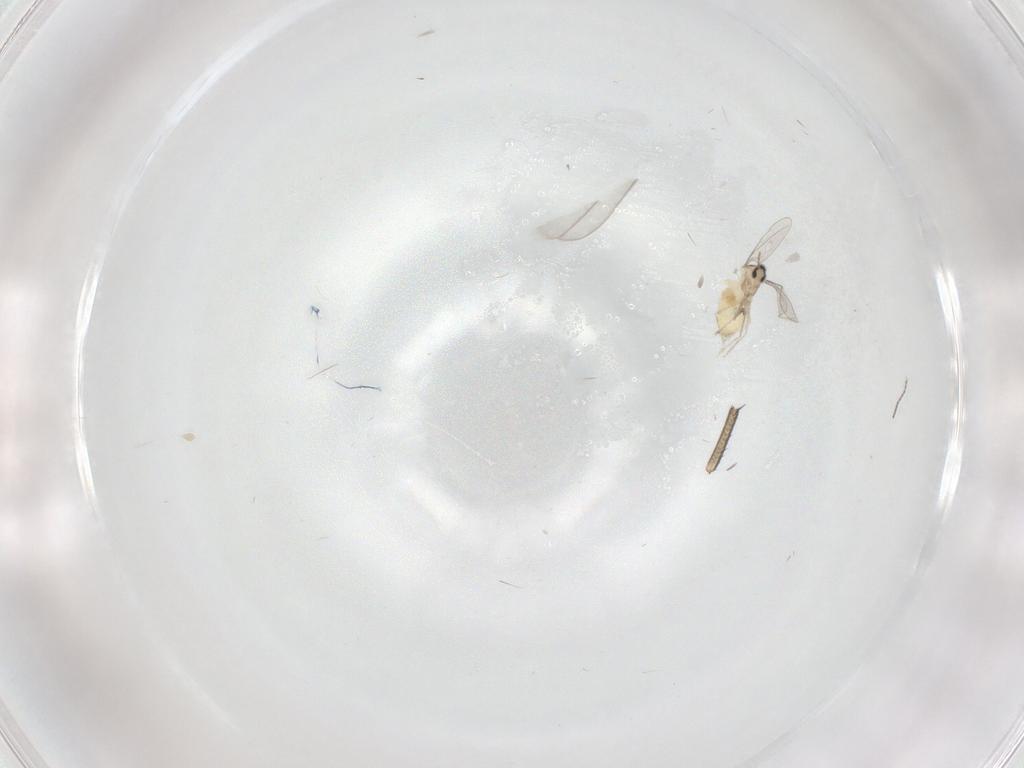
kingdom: Animalia
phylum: Arthropoda
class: Insecta
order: Diptera
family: Cecidomyiidae
